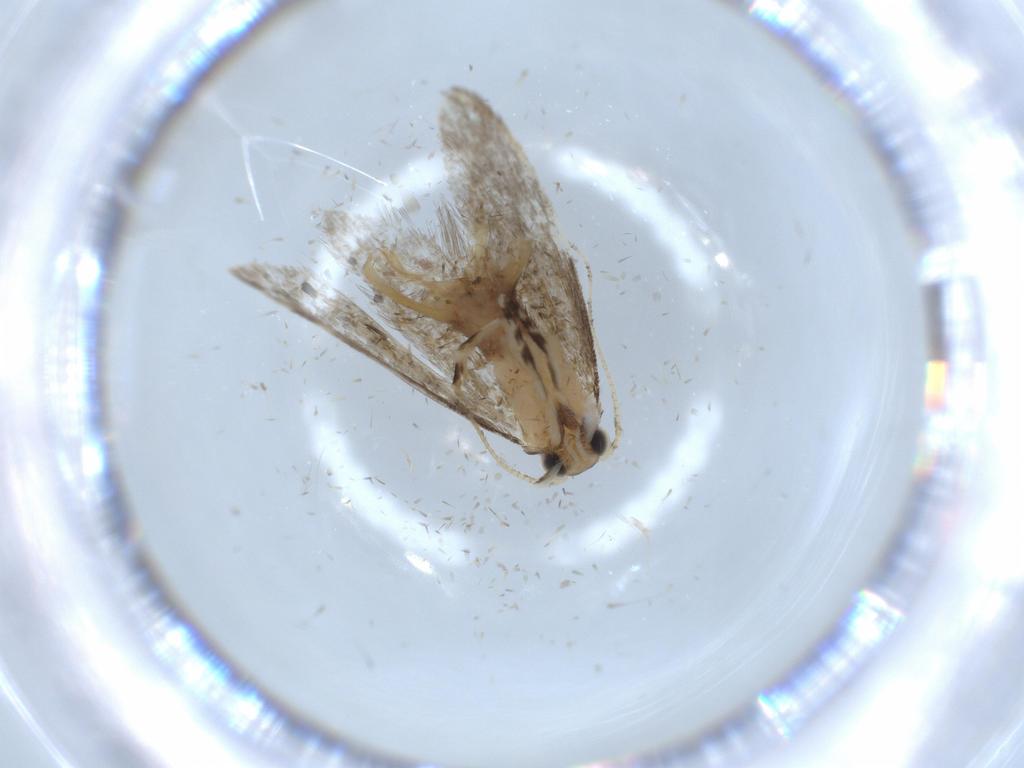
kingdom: Animalia
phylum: Arthropoda
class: Insecta
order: Lepidoptera
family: Tineidae
